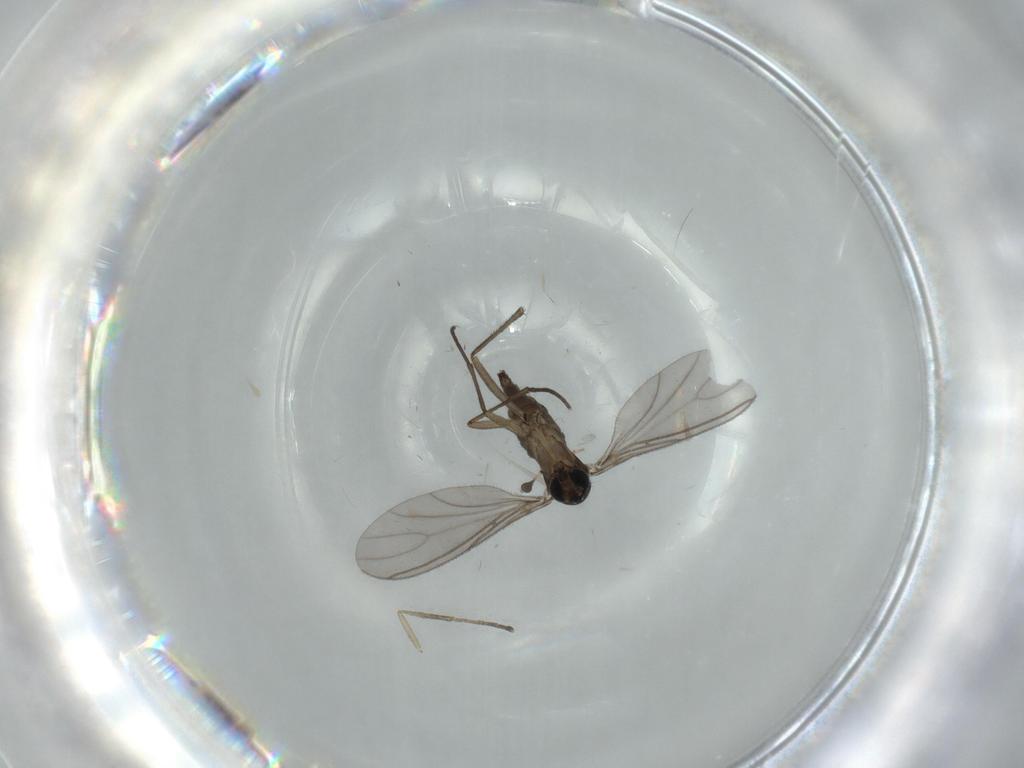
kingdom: Animalia
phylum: Arthropoda
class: Insecta
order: Diptera
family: Sciaridae
